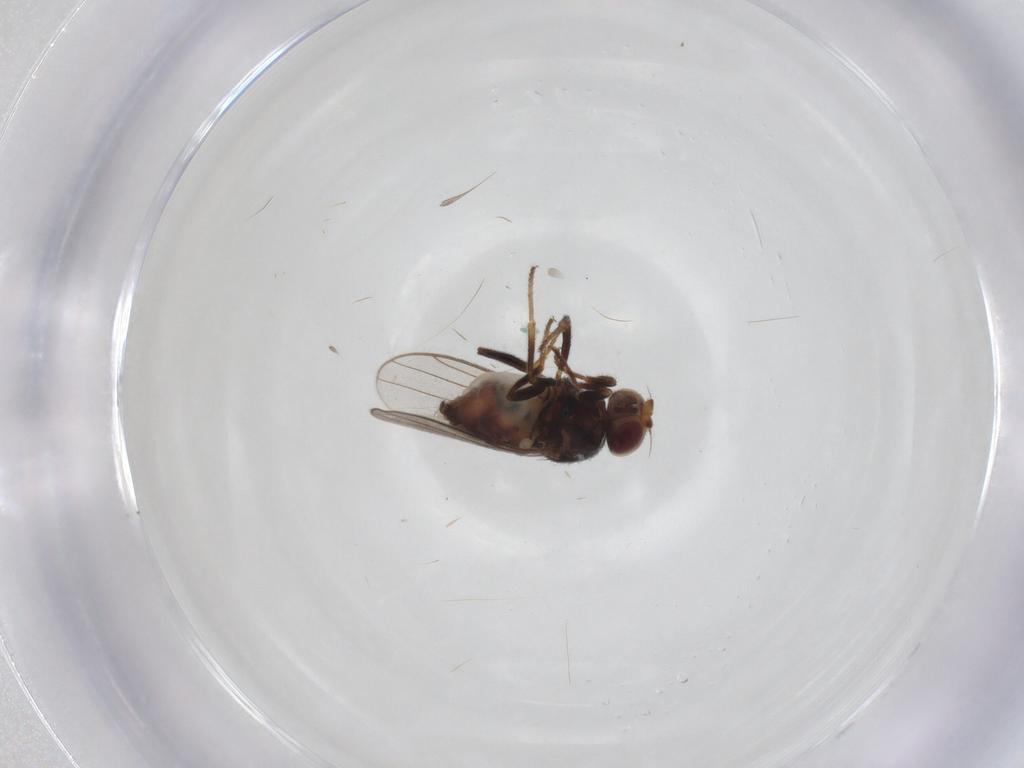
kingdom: Animalia
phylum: Arthropoda
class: Insecta
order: Diptera
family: Chloropidae
